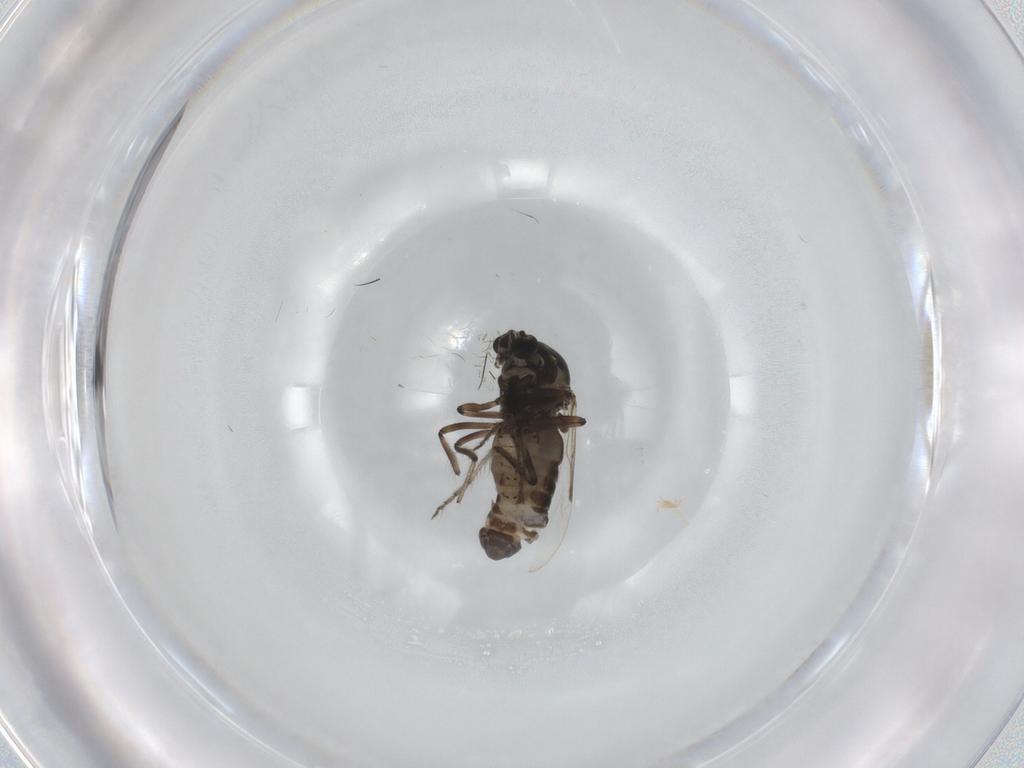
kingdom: Animalia
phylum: Arthropoda
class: Insecta
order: Diptera
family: Ceratopogonidae
